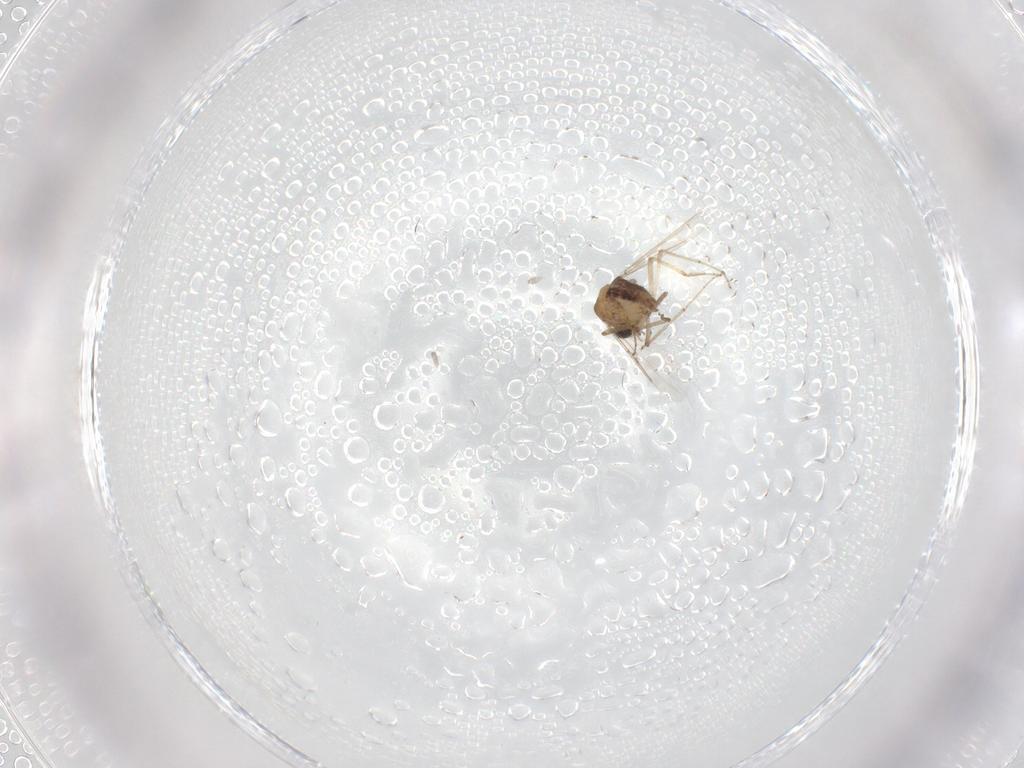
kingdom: Animalia
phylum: Arthropoda
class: Insecta
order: Diptera
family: Ceratopogonidae
